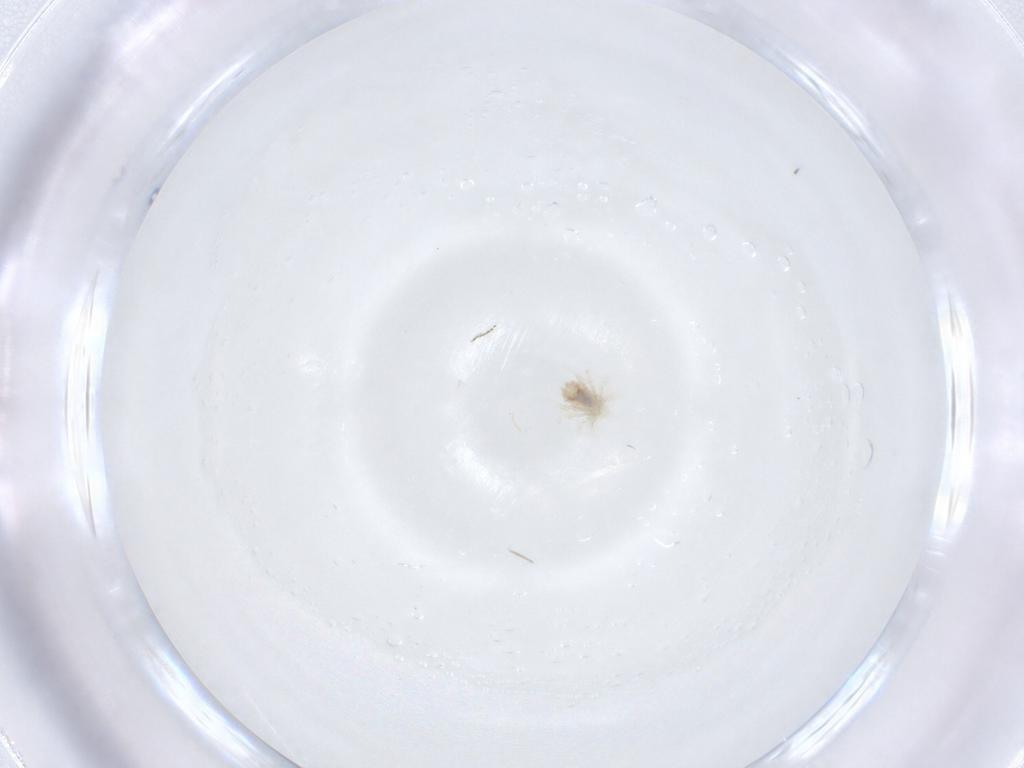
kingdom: Animalia
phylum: Arthropoda
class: Arachnida
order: Trombidiformes
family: Anystidae
